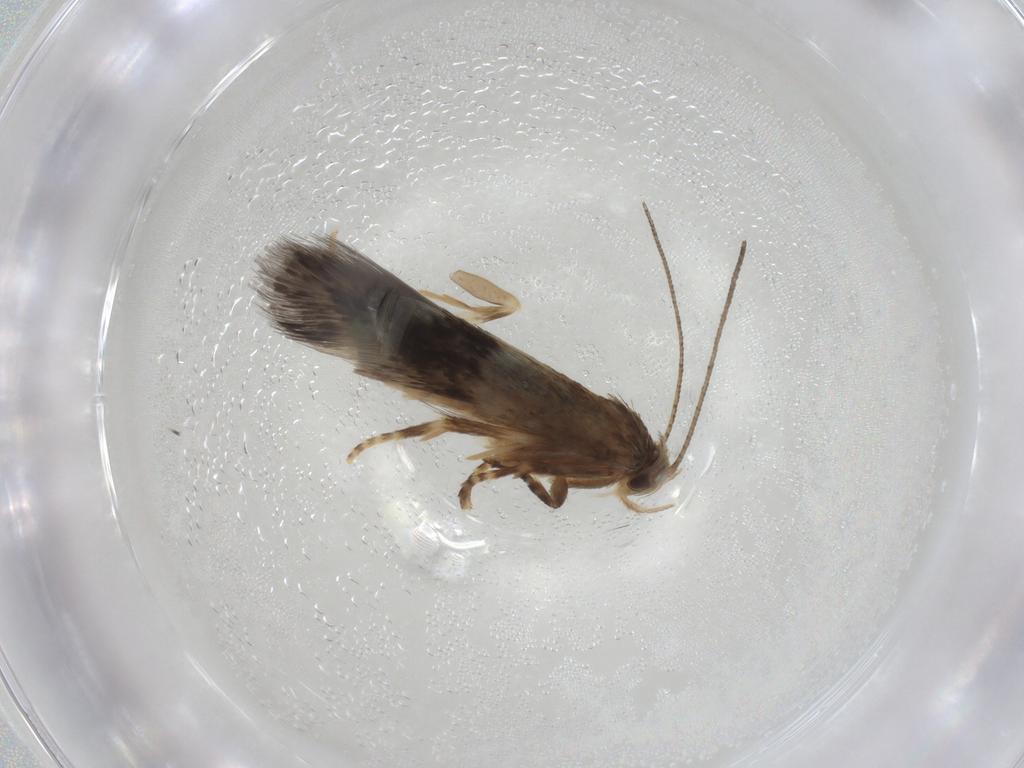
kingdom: Animalia
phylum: Arthropoda
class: Insecta
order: Lepidoptera
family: Elachistidae
